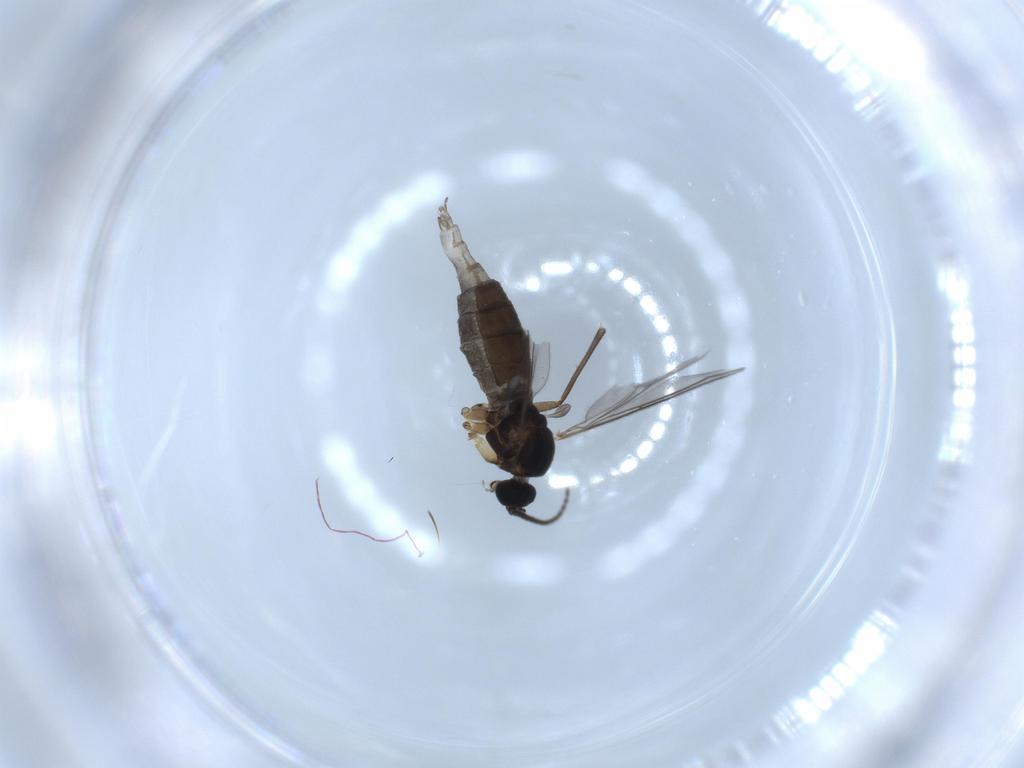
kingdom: Animalia
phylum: Arthropoda
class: Insecta
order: Diptera
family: Sciaridae
